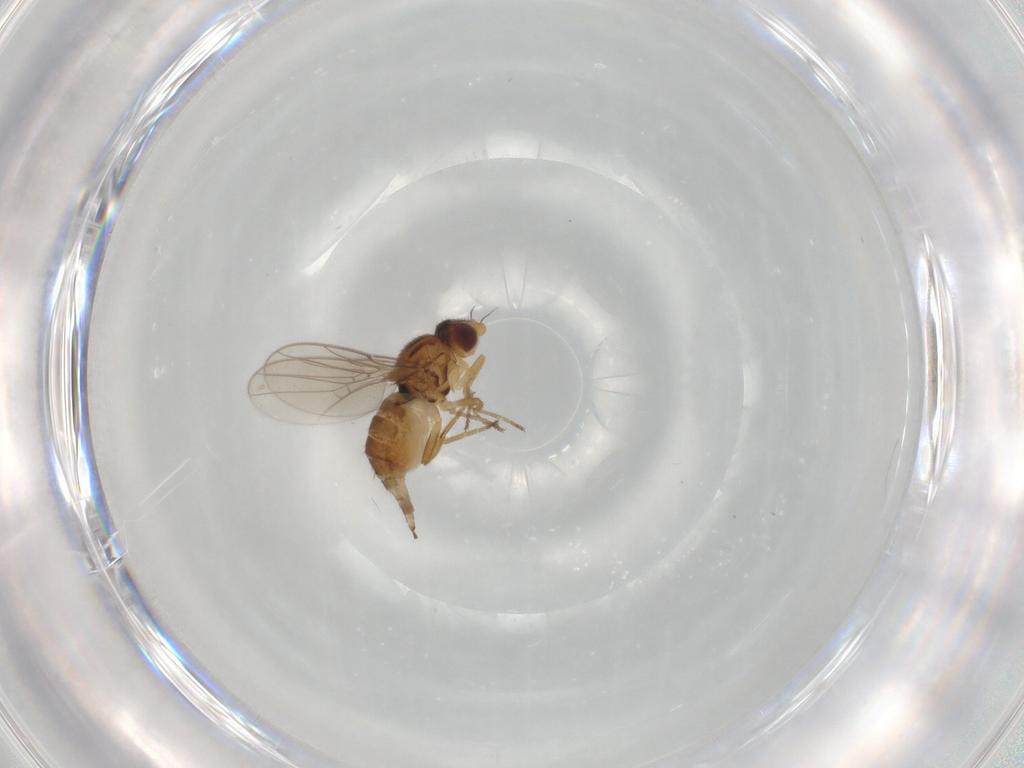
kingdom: Animalia
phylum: Arthropoda
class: Insecta
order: Diptera
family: Chloropidae
